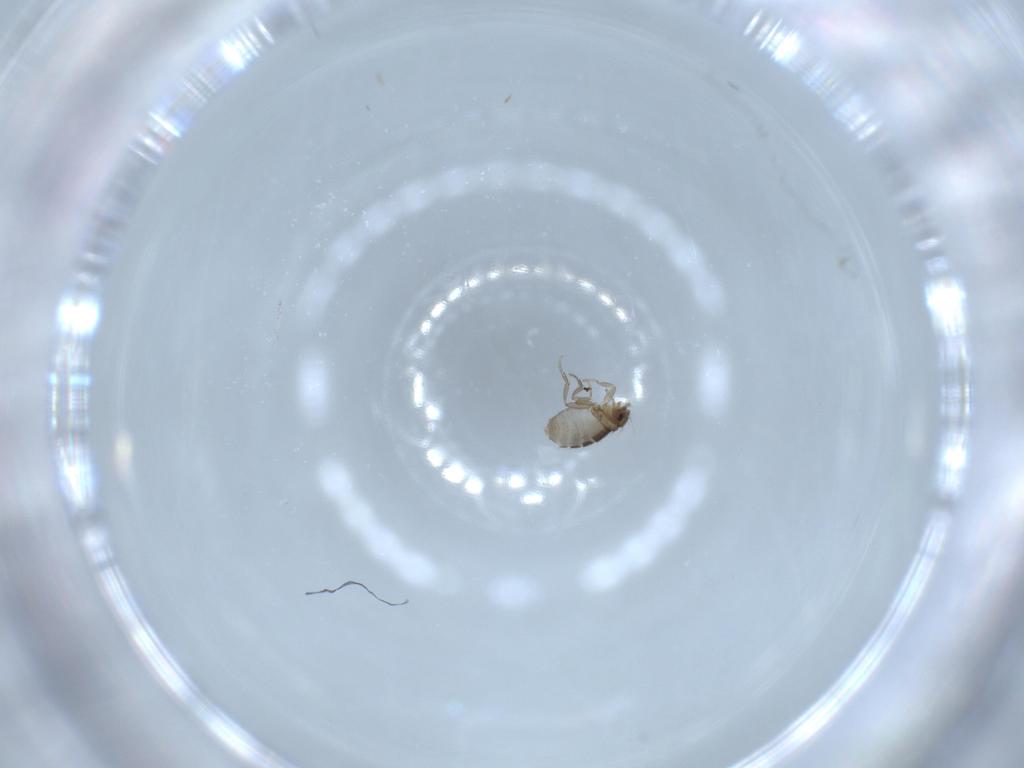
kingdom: Animalia
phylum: Arthropoda
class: Insecta
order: Diptera
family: Phoridae
